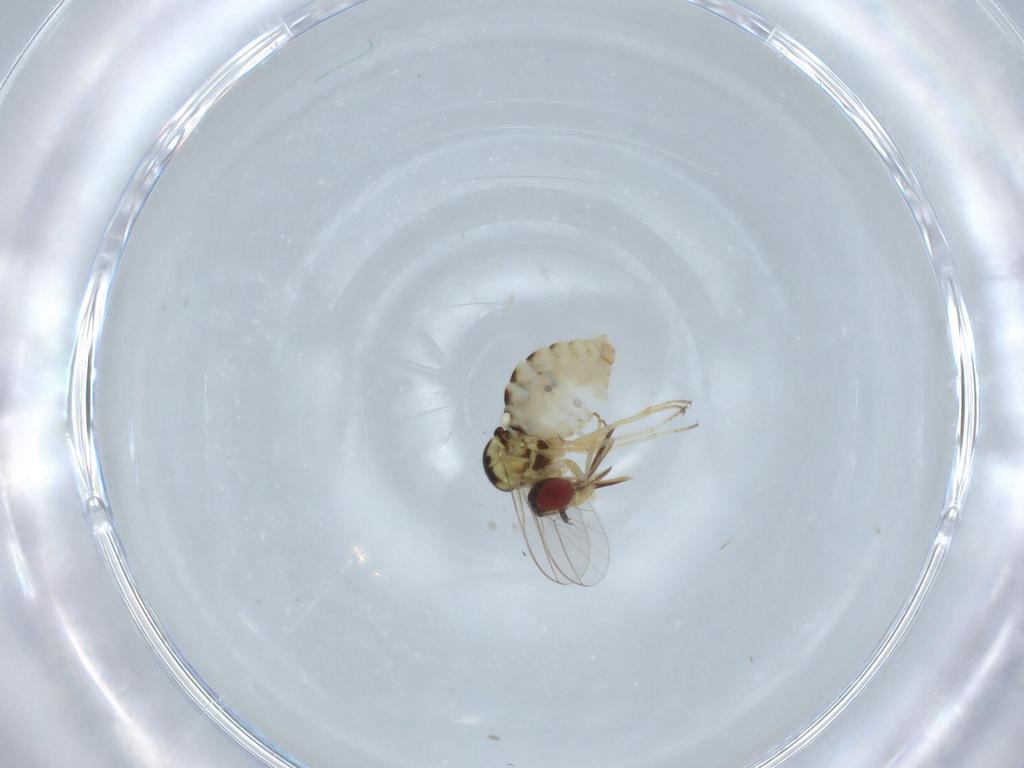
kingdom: Animalia
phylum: Arthropoda
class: Insecta
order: Diptera
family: Bombyliidae
